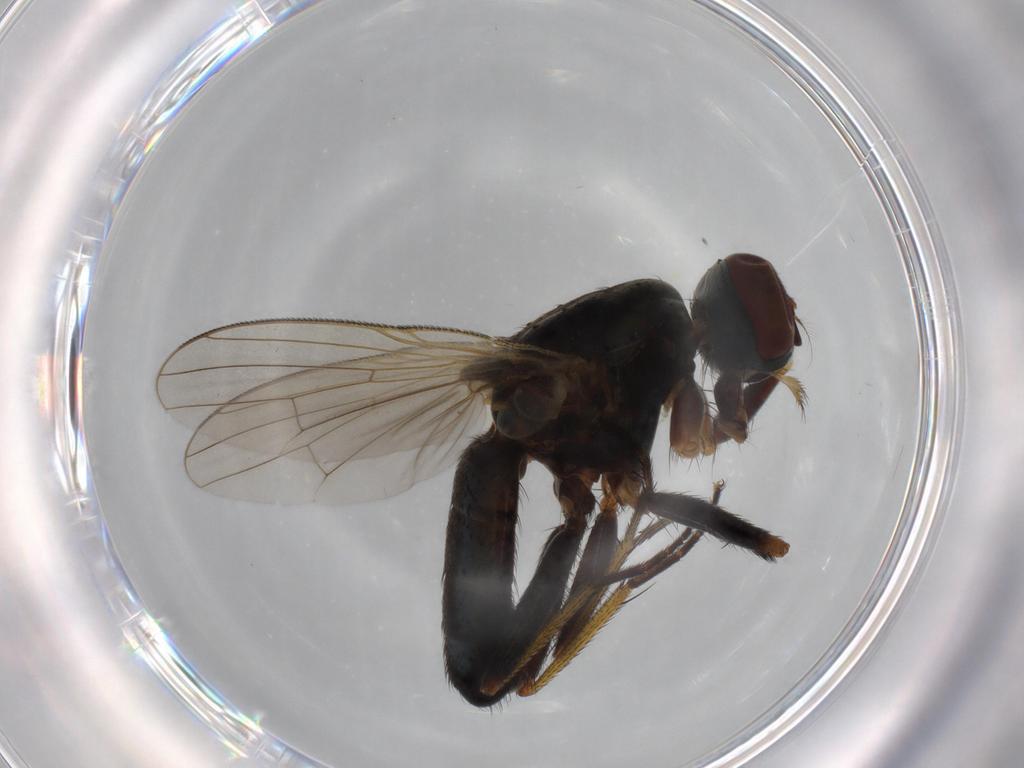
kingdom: Animalia
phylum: Arthropoda
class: Insecta
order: Diptera
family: Muscidae
